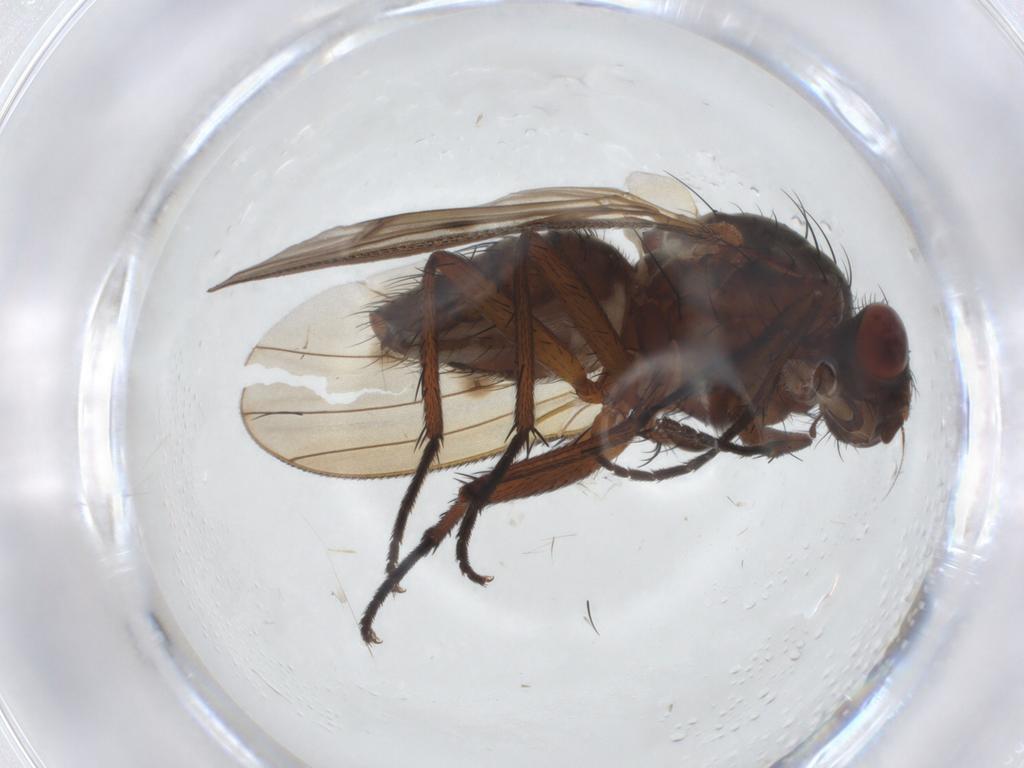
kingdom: Animalia
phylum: Arthropoda
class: Insecta
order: Diptera
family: Anthomyiidae
